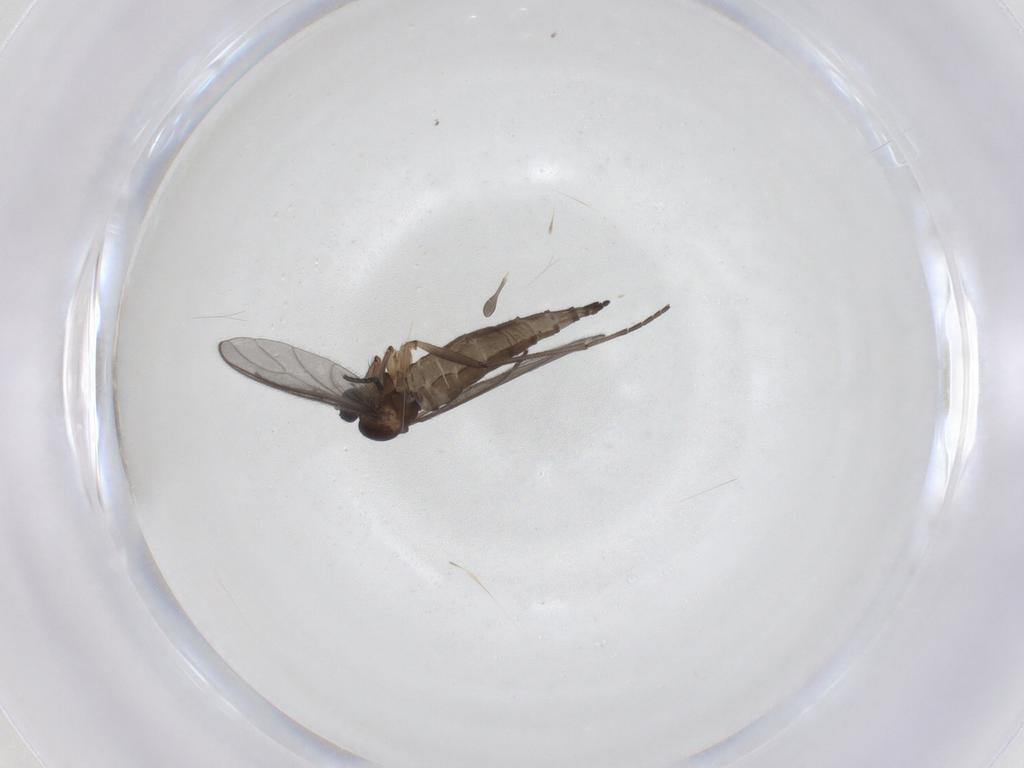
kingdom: Animalia
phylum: Arthropoda
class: Insecta
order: Diptera
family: Sciaridae
